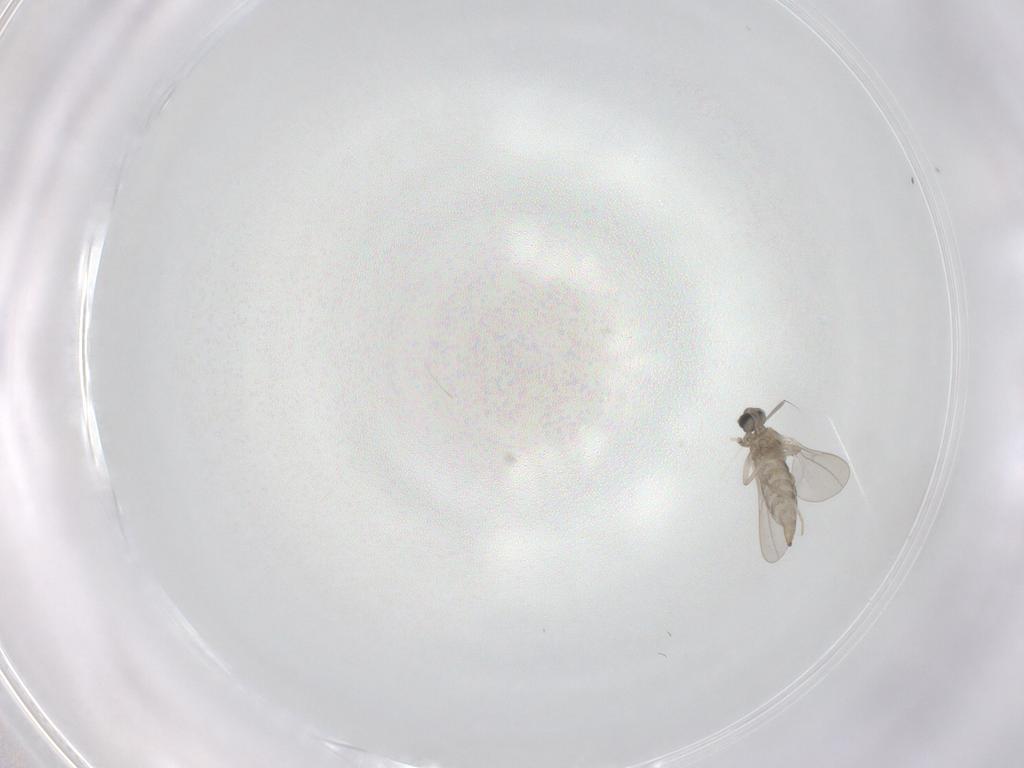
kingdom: Animalia
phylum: Arthropoda
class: Insecta
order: Diptera
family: Cecidomyiidae
